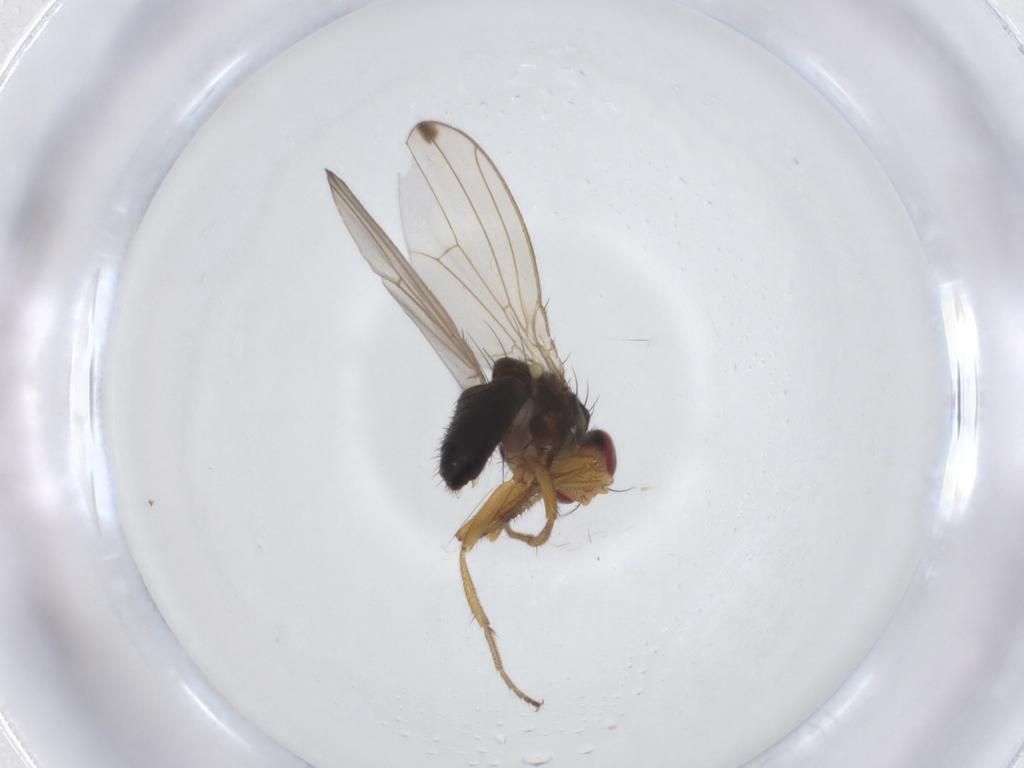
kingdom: Animalia
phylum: Arthropoda
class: Insecta
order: Diptera
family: Drosophilidae
